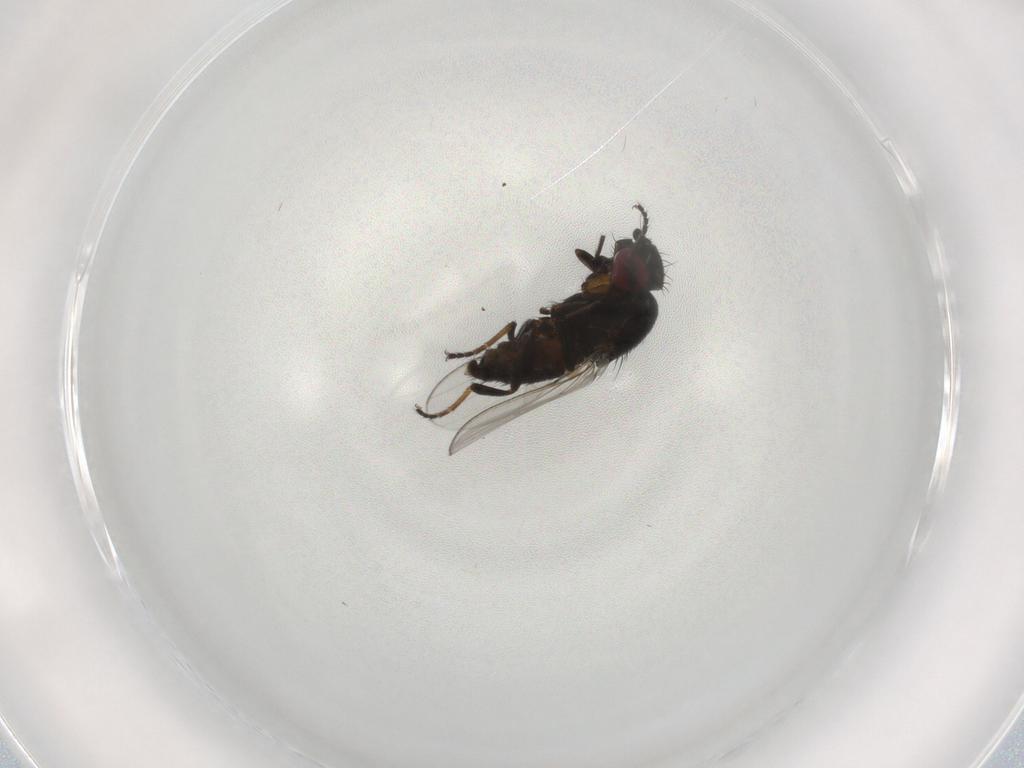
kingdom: Animalia
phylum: Arthropoda
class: Insecta
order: Diptera
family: Milichiidae
